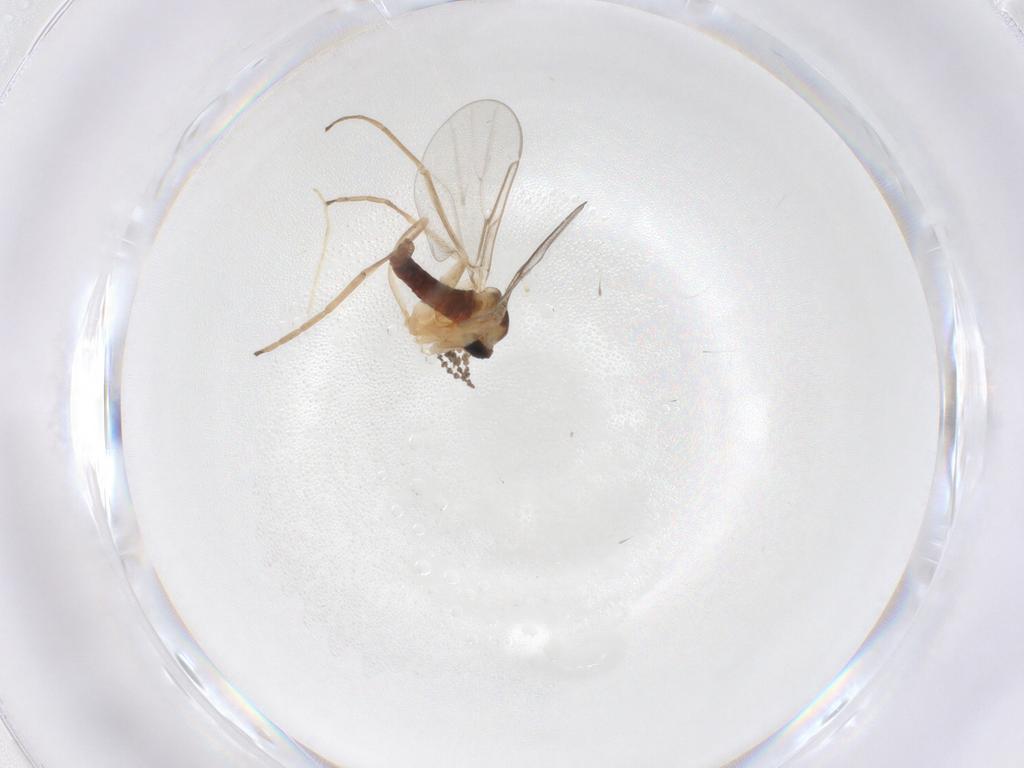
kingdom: Animalia
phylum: Arthropoda
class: Insecta
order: Diptera
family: Cecidomyiidae
